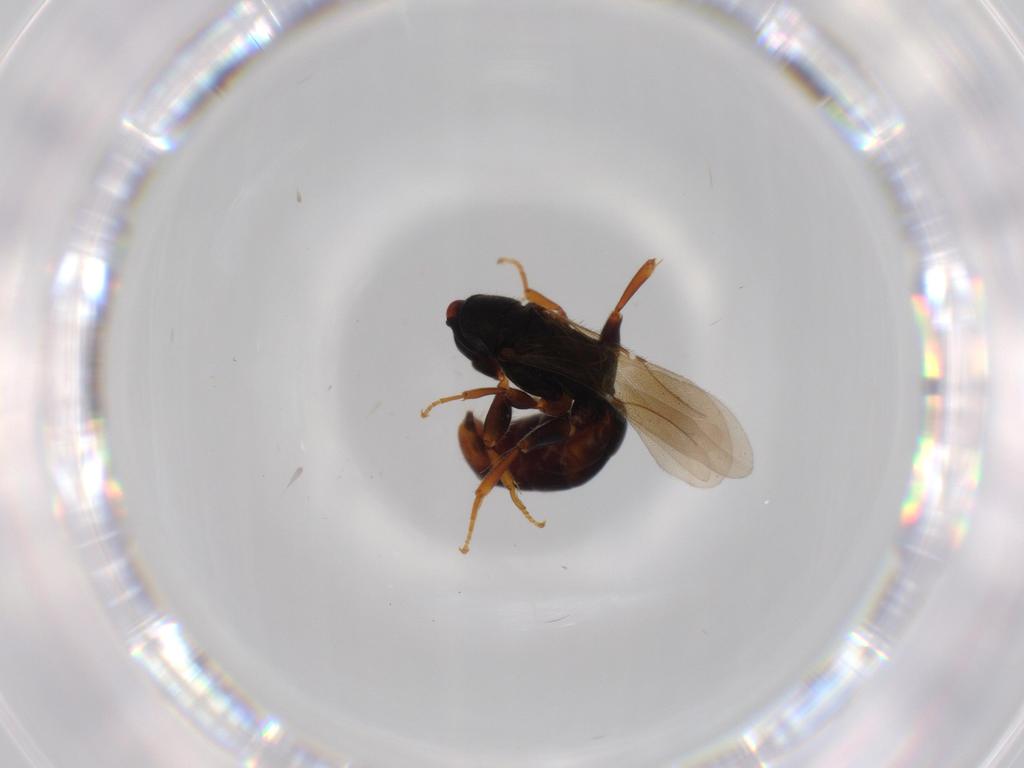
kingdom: Animalia
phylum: Arthropoda
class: Insecta
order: Hymenoptera
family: Bethylidae
